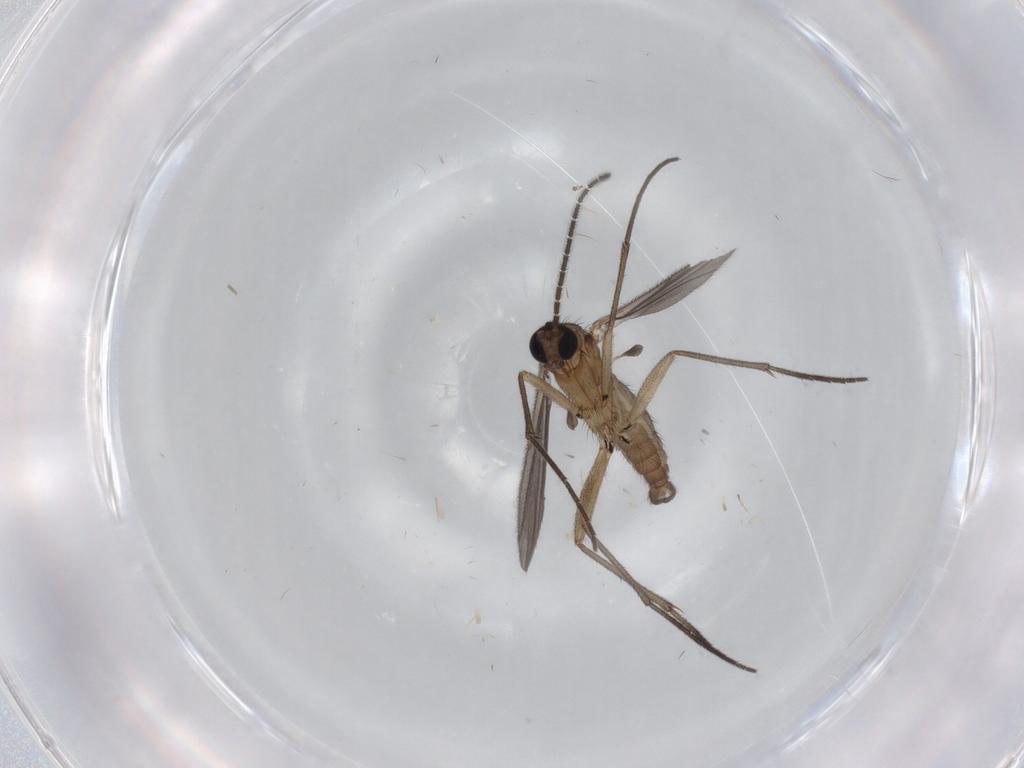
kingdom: Animalia
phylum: Arthropoda
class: Insecta
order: Diptera
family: Sciaridae
